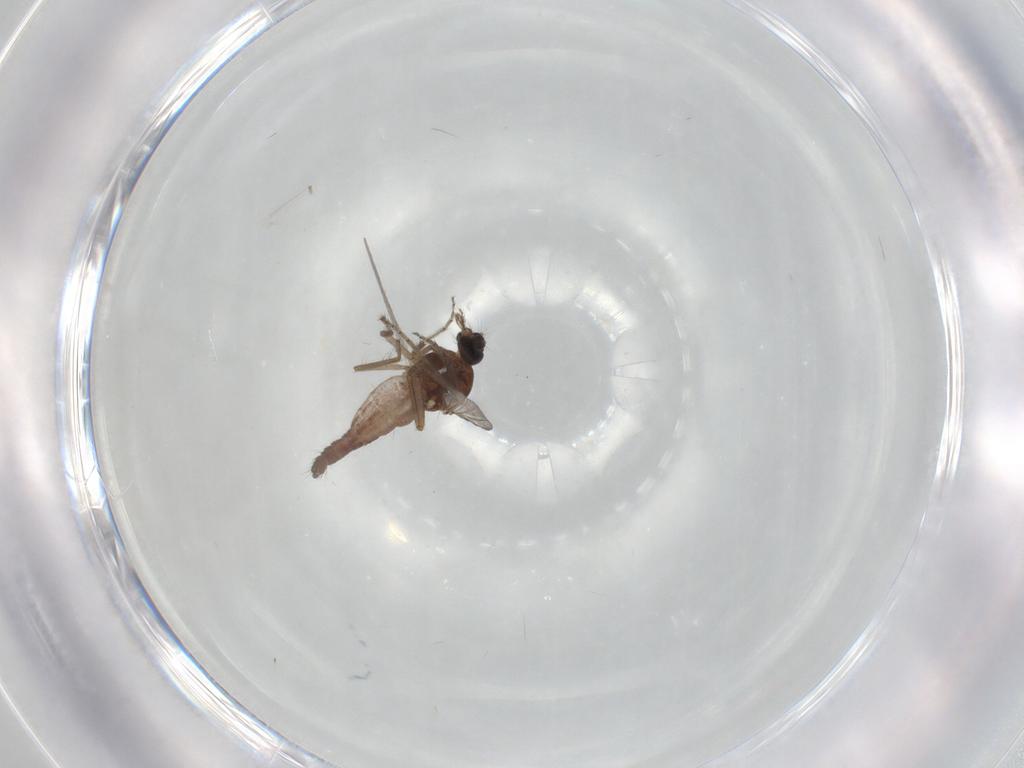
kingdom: Animalia
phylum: Arthropoda
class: Insecta
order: Diptera
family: Ceratopogonidae
